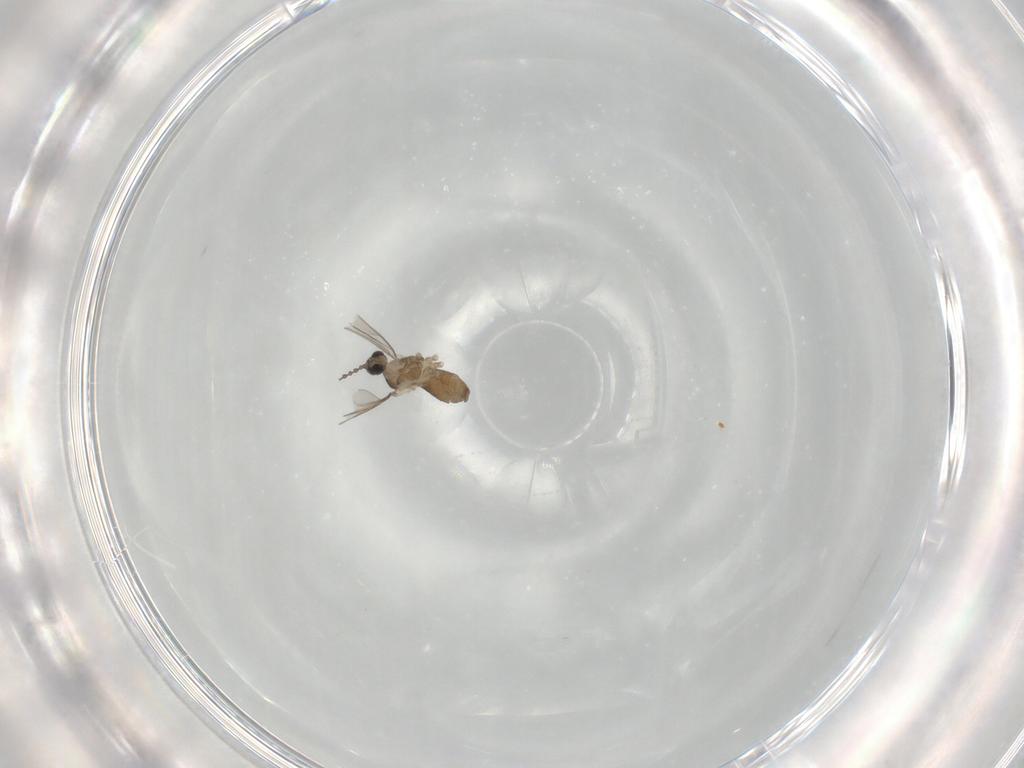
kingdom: Animalia
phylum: Arthropoda
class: Insecta
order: Diptera
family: Cecidomyiidae
